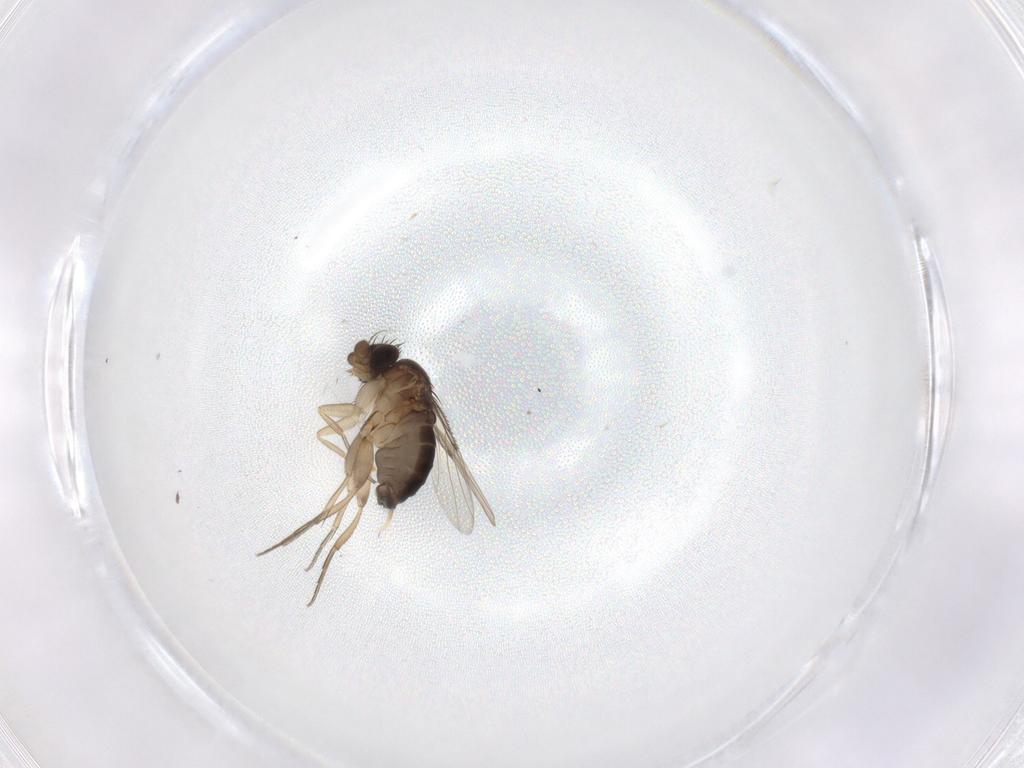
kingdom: Animalia
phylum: Arthropoda
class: Insecta
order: Diptera
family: Phoridae
